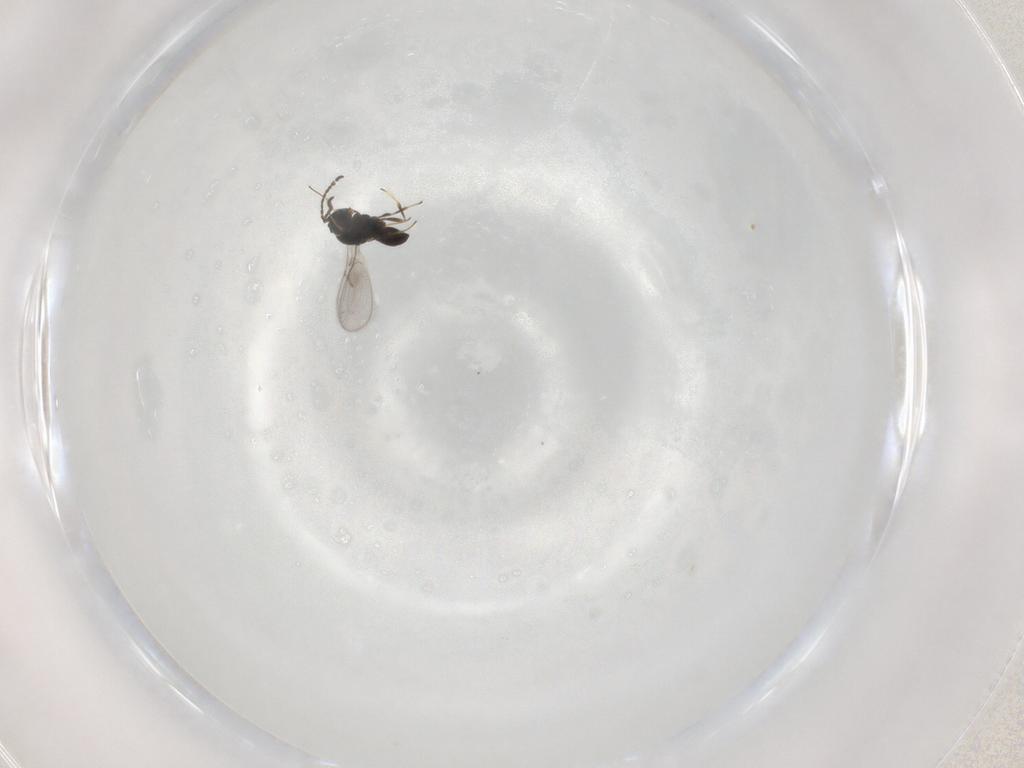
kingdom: Animalia
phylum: Arthropoda
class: Insecta
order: Hymenoptera
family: Scelionidae
